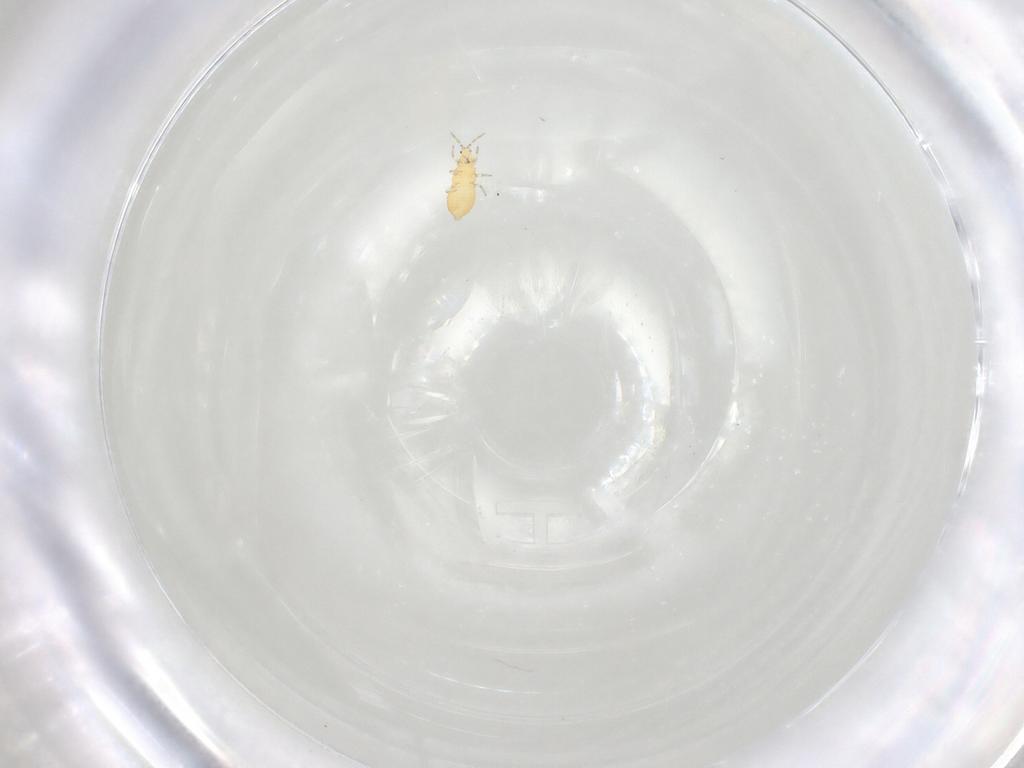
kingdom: Animalia
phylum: Arthropoda
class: Insecta
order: Thysanoptera
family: Thripidae
